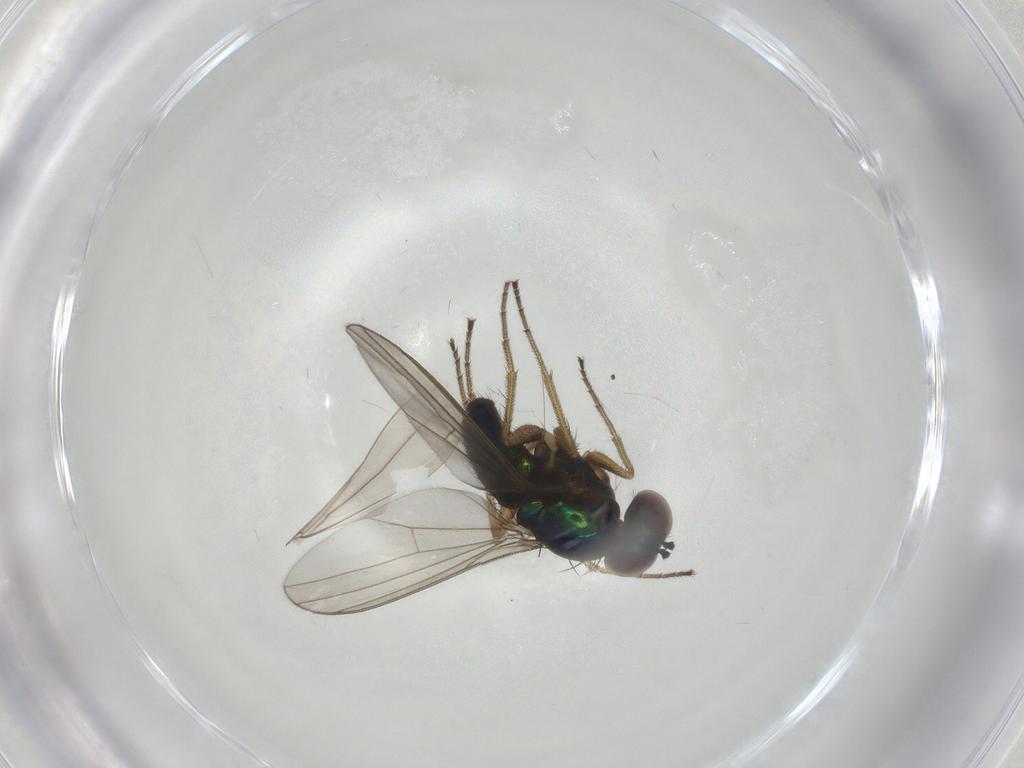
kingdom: Animalia
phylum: Arthropoda
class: Insecta
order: Diptera
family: Dolichopodidae
